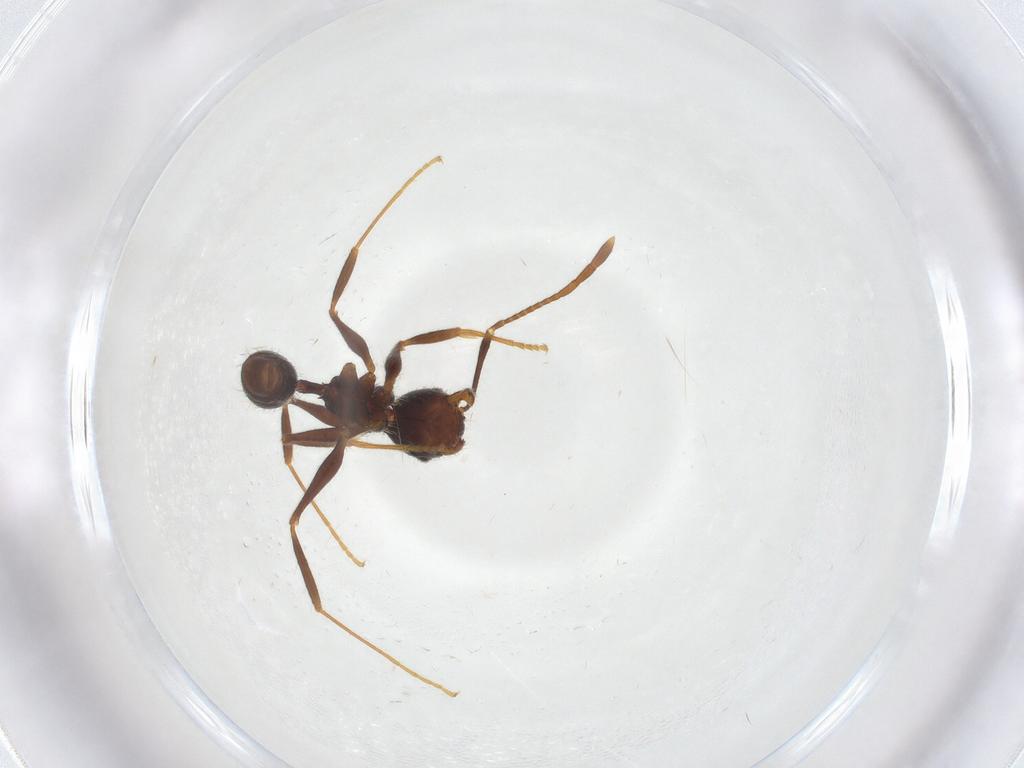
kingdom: Animalia
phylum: Arthropoda
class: Insecta
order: Hymenoptera
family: Formicidae
